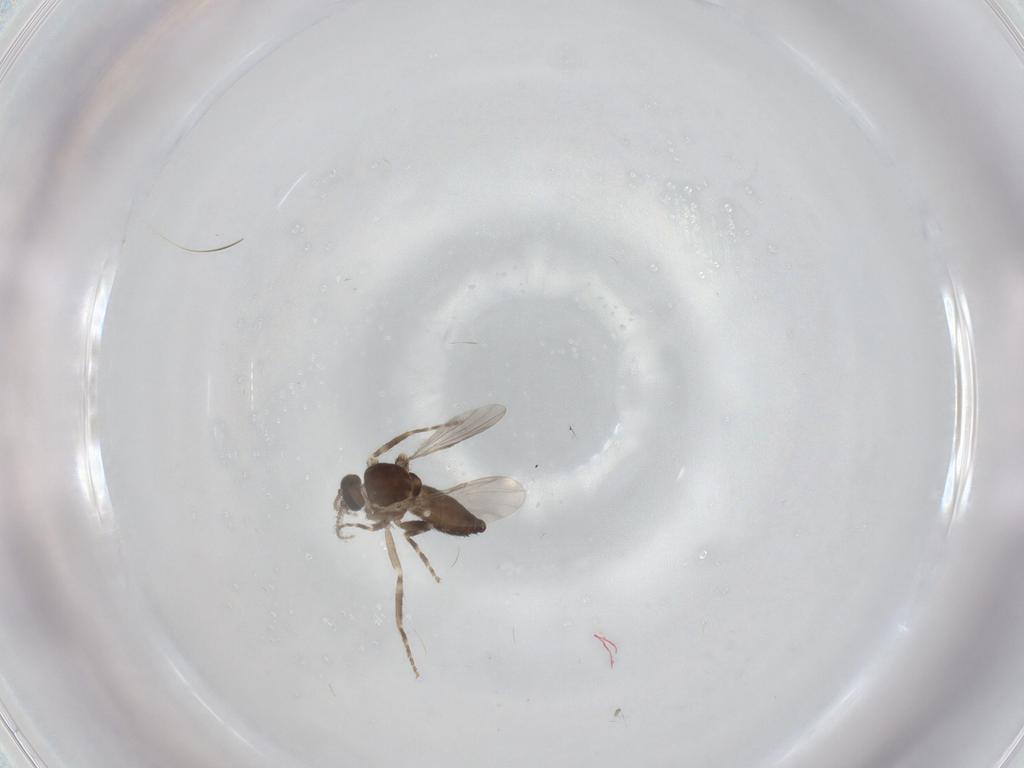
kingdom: Animalia
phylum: Arthropoda
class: Insecta
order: Diptera
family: Ceratopogonidae
